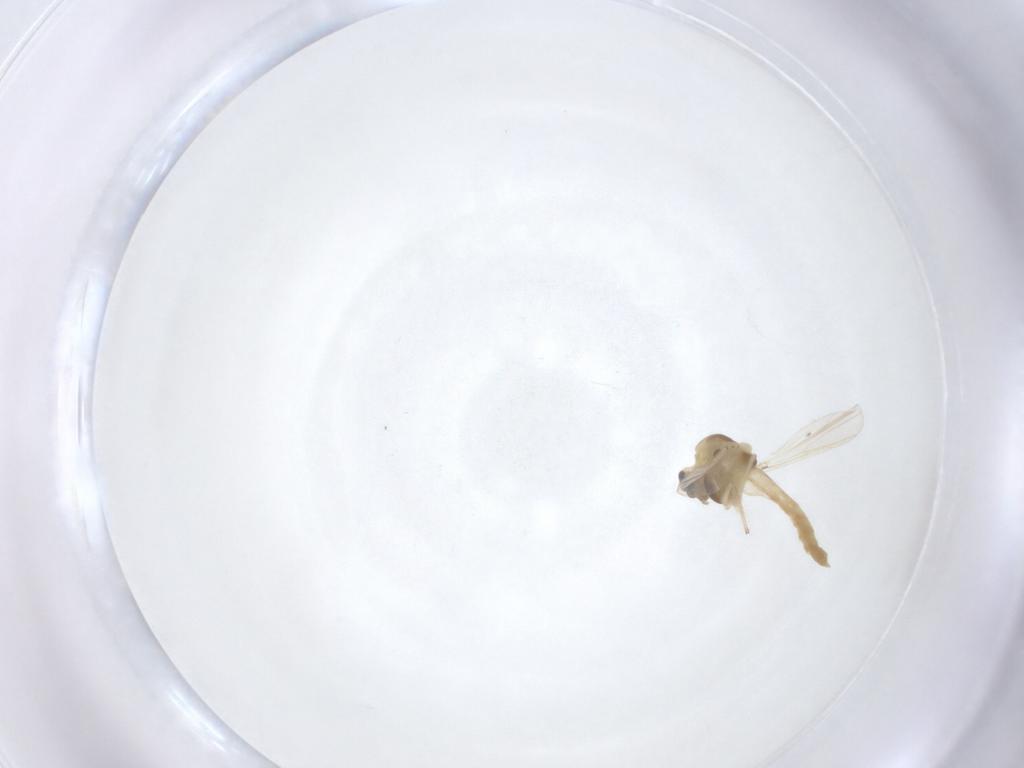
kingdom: Animalia
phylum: Arthropoda
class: Insecta
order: Diptera
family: Chironomidae
